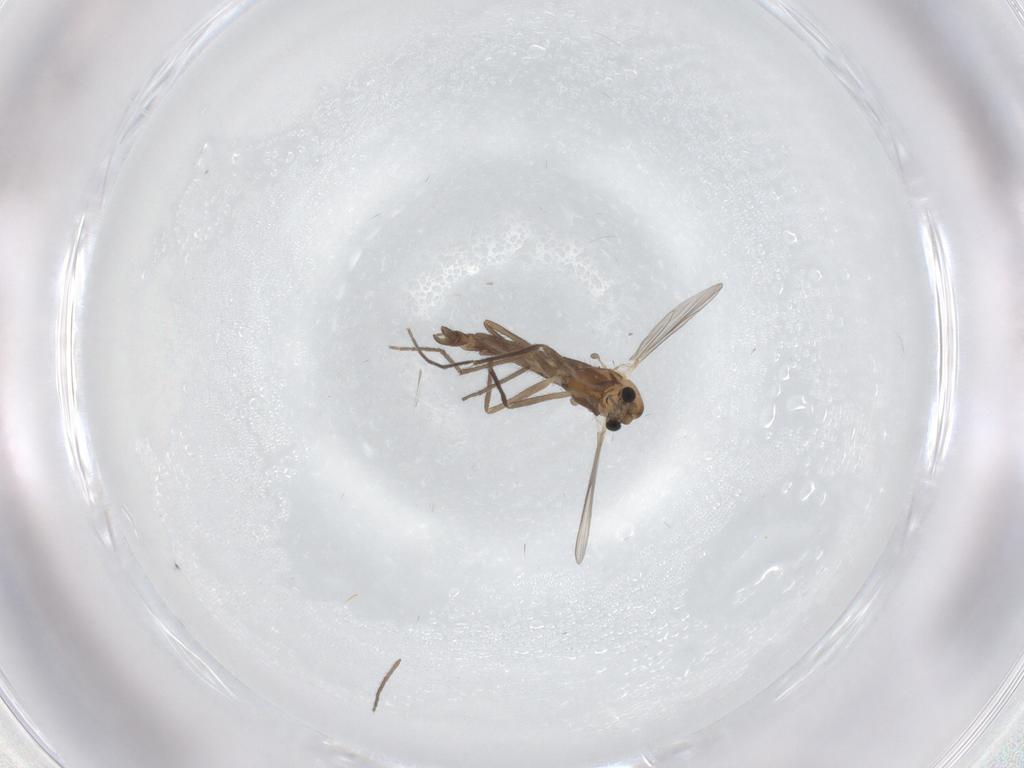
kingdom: Animalia
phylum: Arthropoda
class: Insecta
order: Diptera
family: Chironomidae
